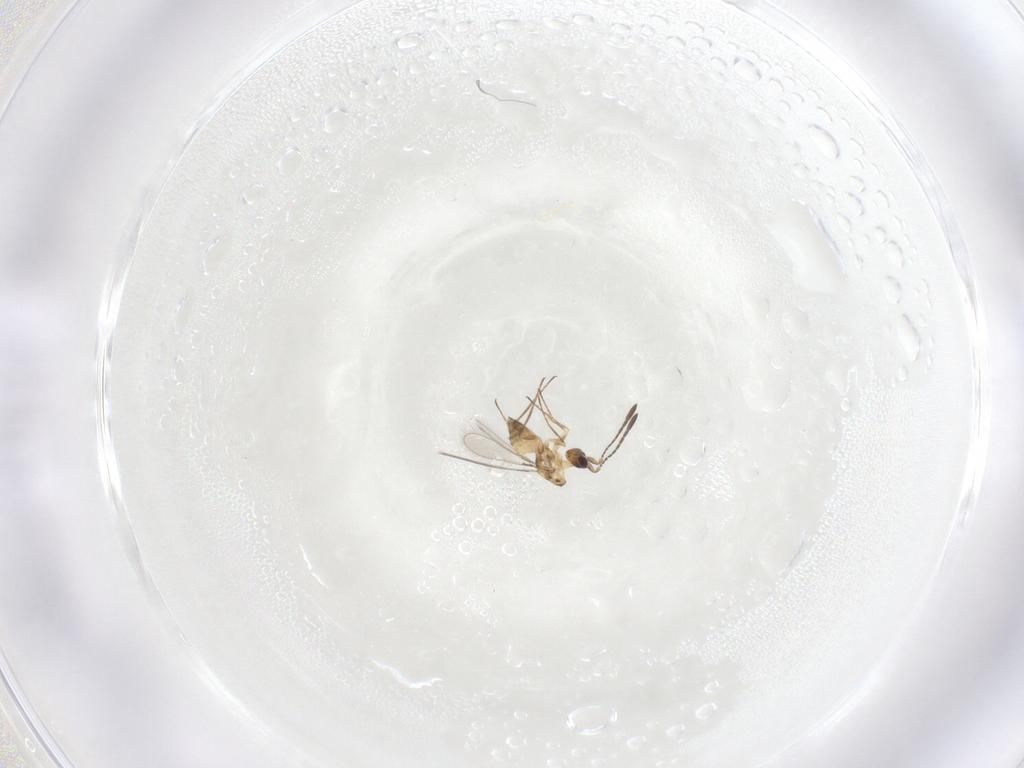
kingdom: Animalia
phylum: Arthropoda
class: Insecta
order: Hymenoptera
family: Mymaridae
